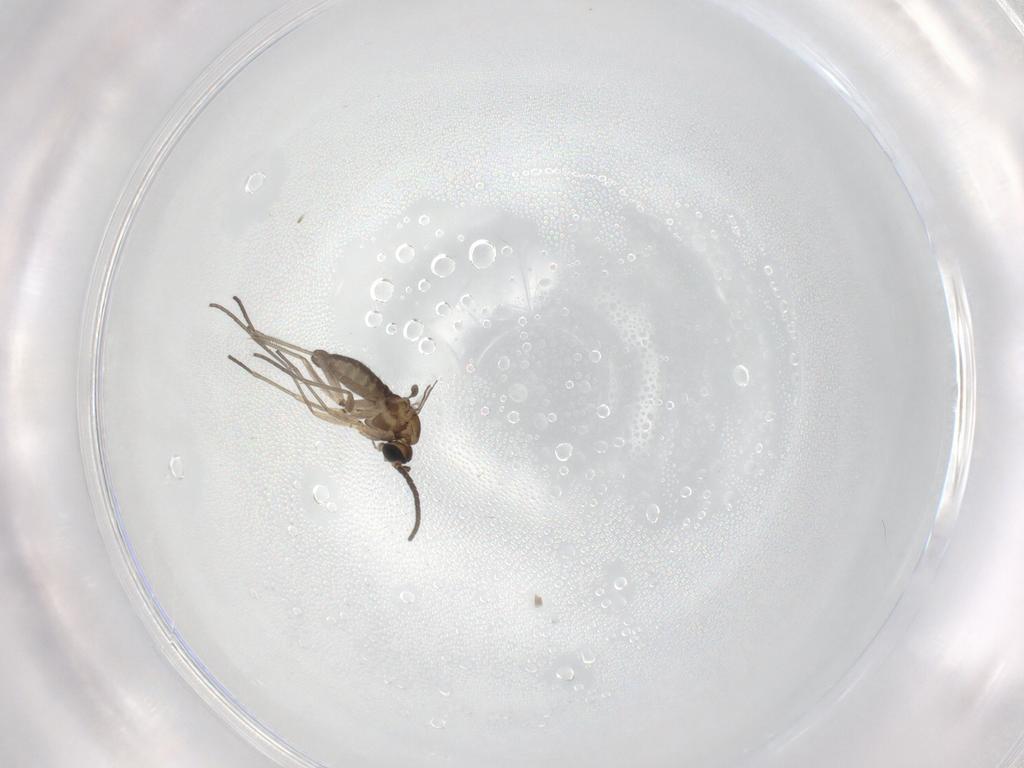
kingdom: Animalia
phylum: Arthropoda
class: Insecta
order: Diptera
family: Sciaridae
